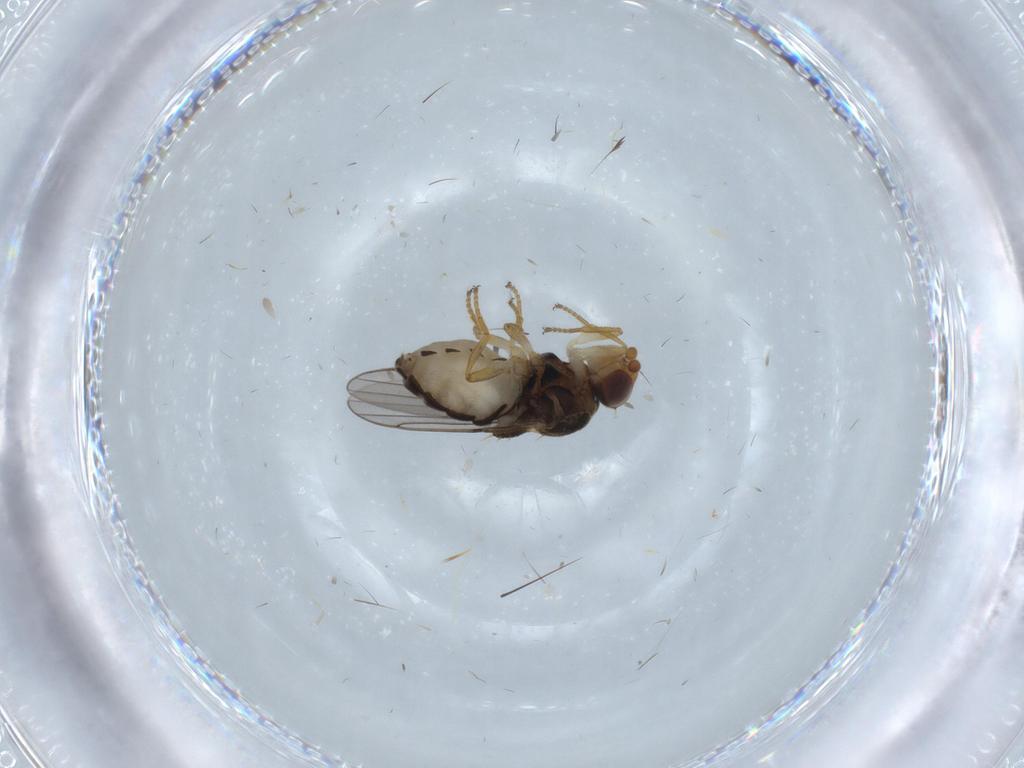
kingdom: Animalia
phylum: Arthropoda
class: Insecta
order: Diptera
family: Chloropidae
